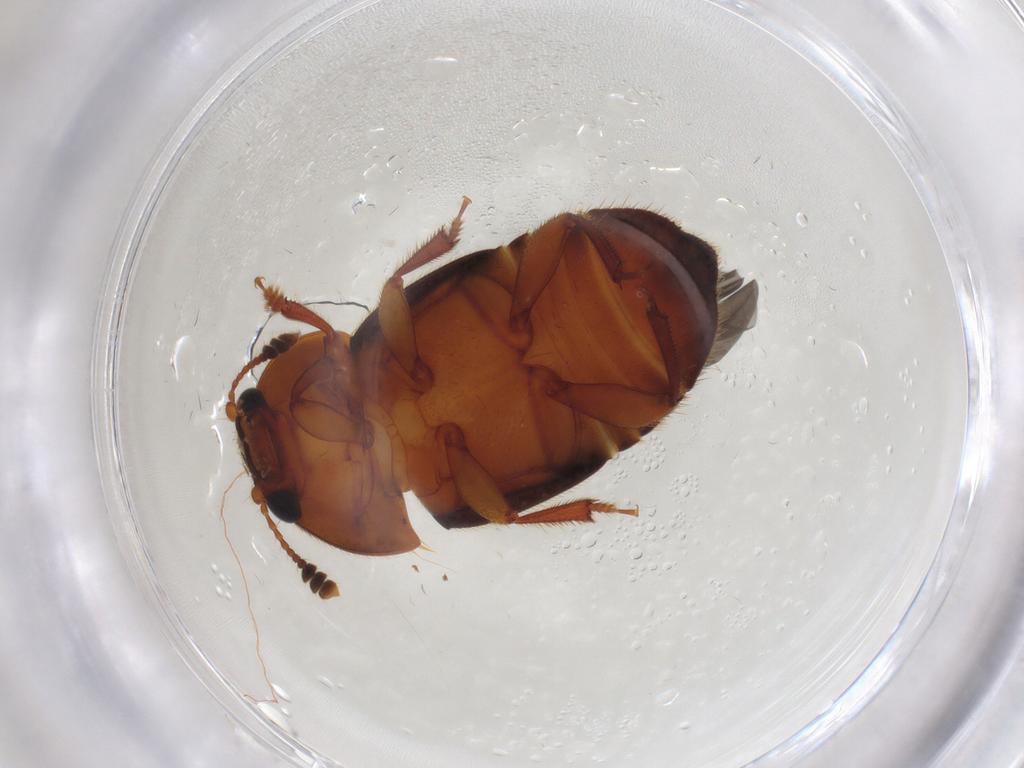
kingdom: Animalia
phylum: Arthropoda
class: Insecta
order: Coleoptera
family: Nitidulidae
